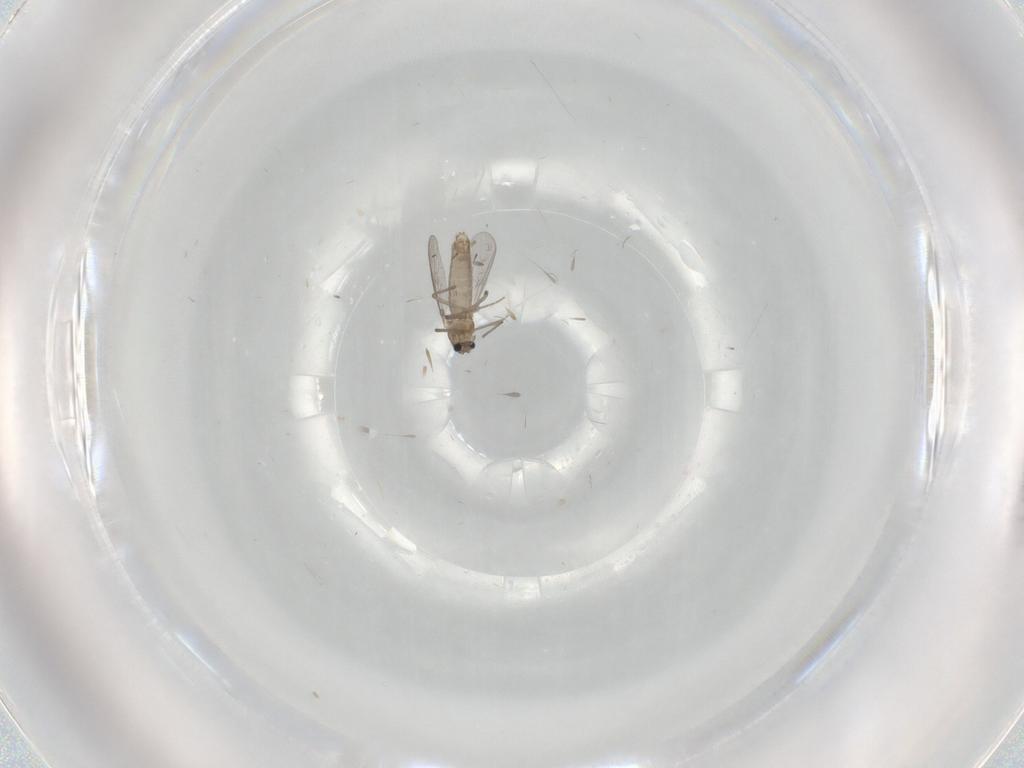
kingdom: Animalia
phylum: Arthropoda
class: Insecta
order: Diptera
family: Chironomidae
